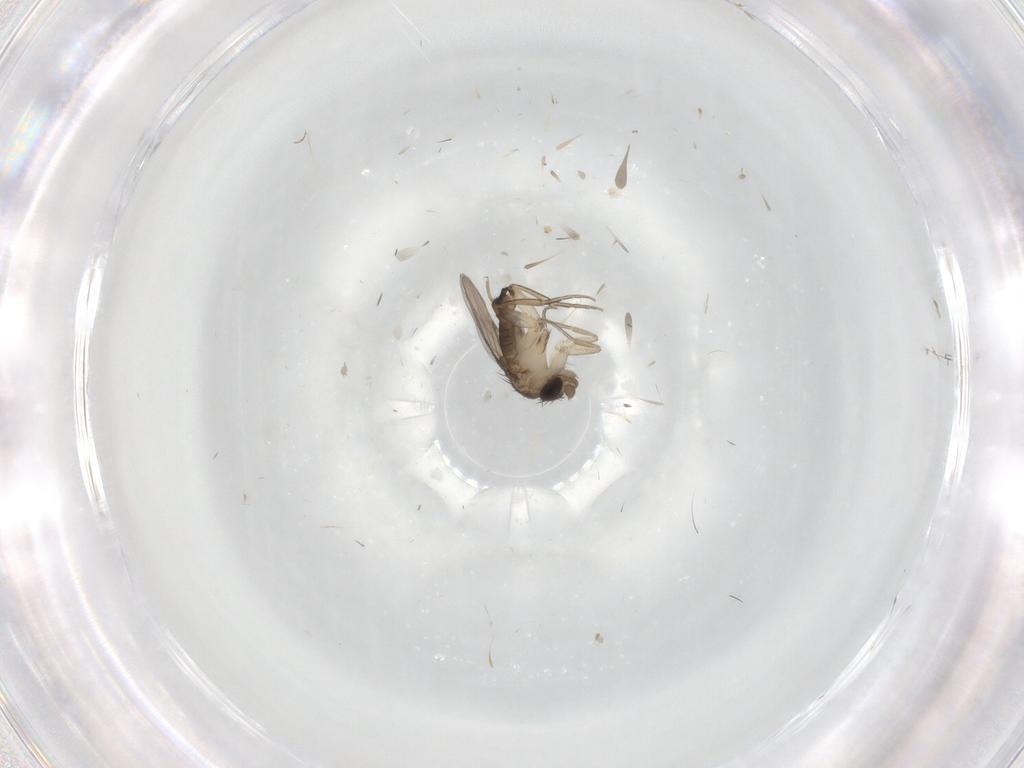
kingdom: Animalia
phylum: Arthropoda
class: Insecta
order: Diptera
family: Phoridae
